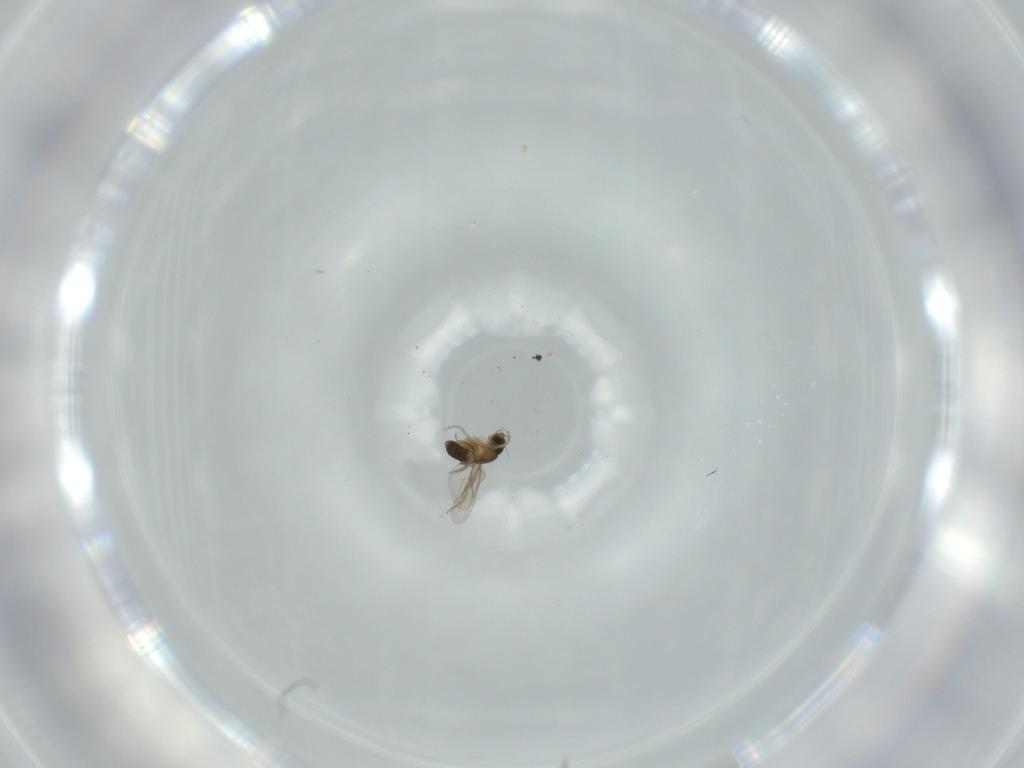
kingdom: Animalia
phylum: Arthropoda
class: Insecta
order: Diptera
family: Phoridae
